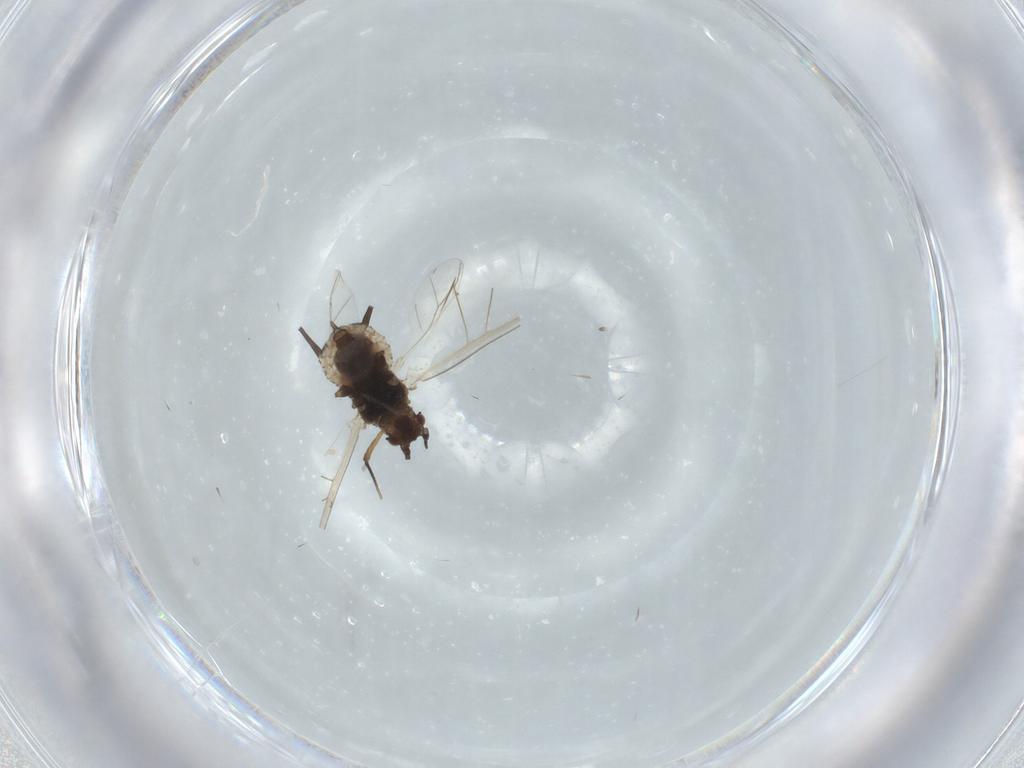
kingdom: Animalia
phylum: Arthropoda
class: Insecta
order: Hemiptera
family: Aphididae
